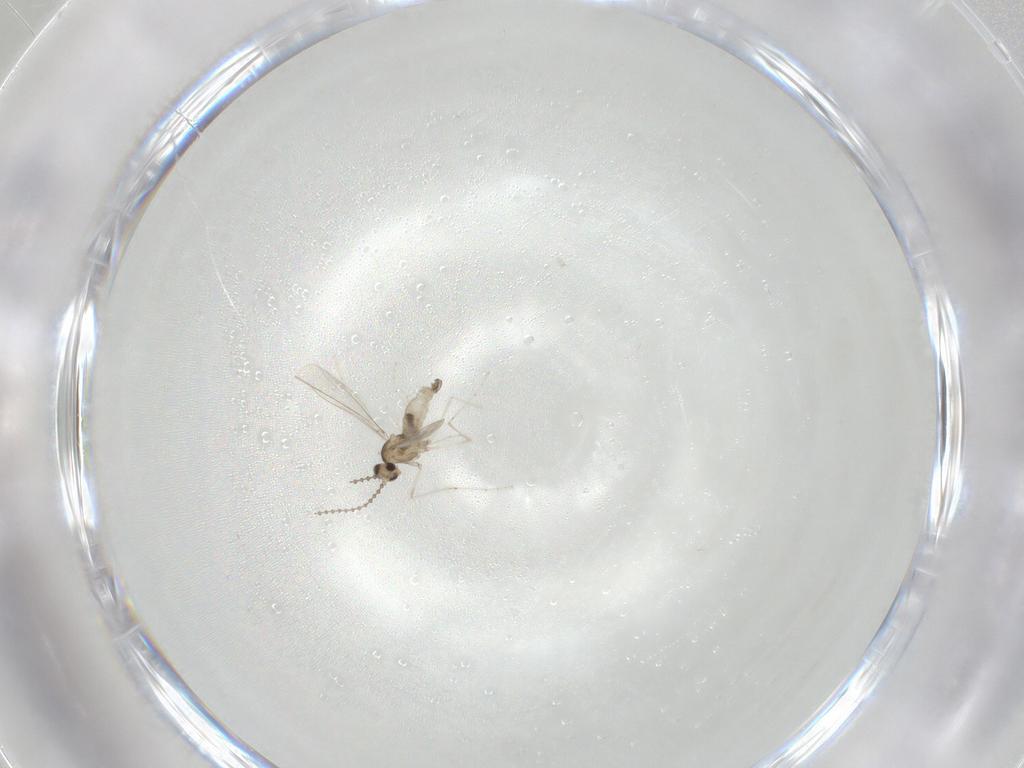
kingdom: Animalia
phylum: Arthropoda
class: Insecta
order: Diptera
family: Cecidomyiidae
